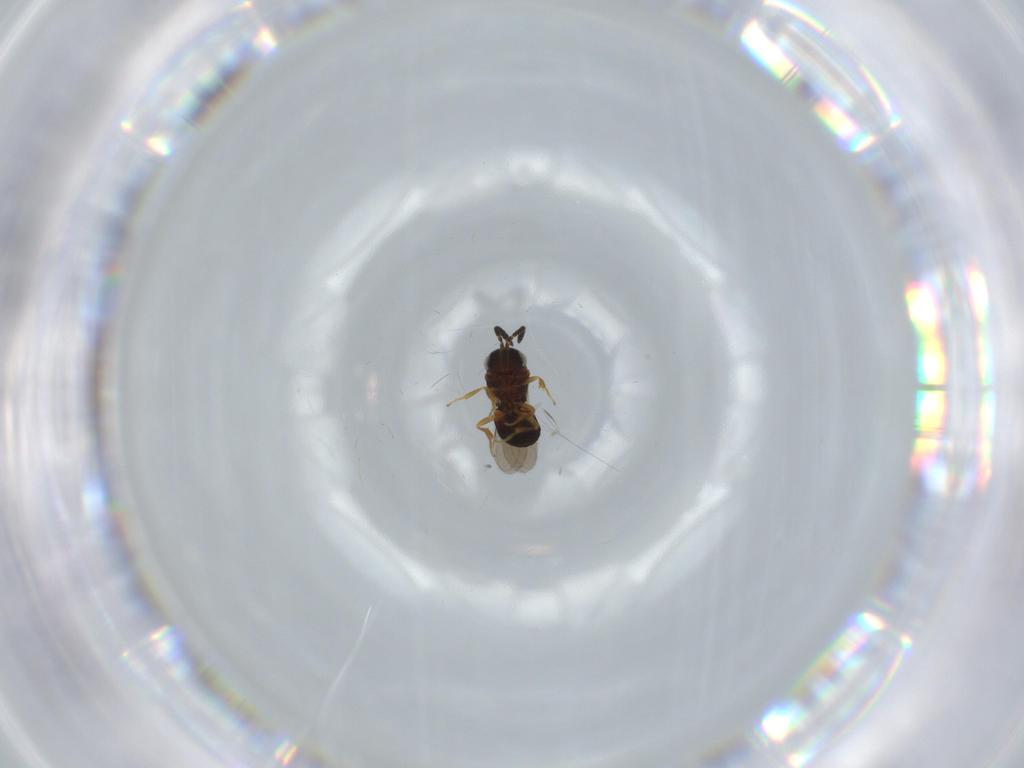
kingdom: Animalia
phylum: Arthropoda
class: Insecta
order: Hymenoptera
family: Scelionidae
